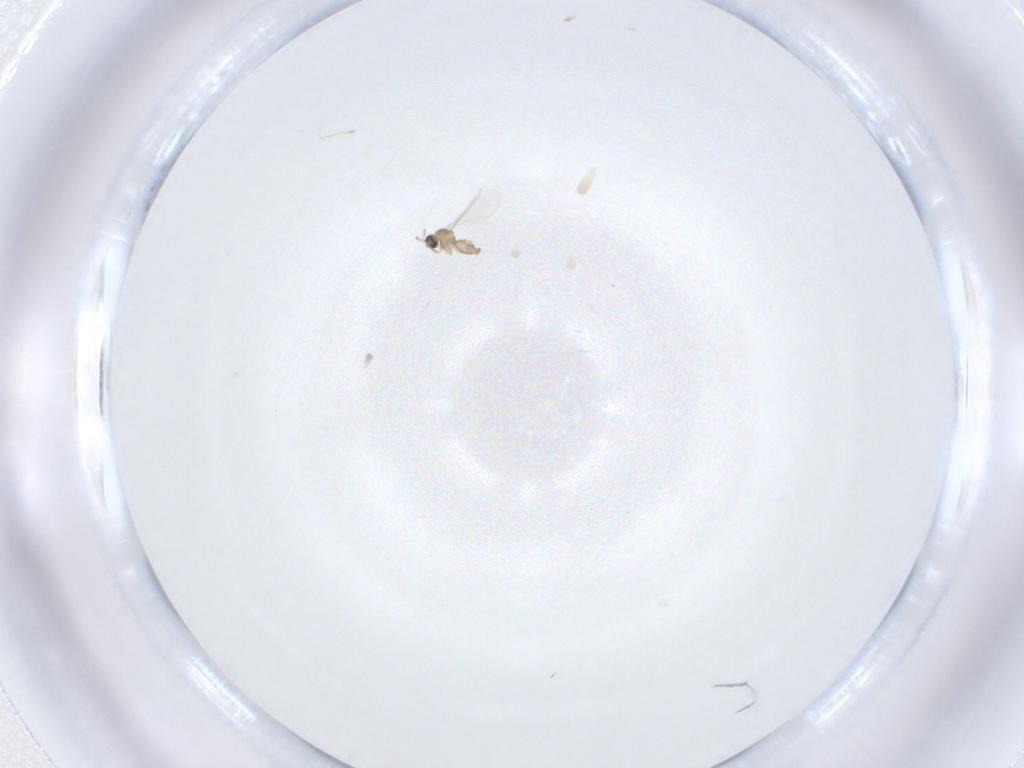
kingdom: Animalia
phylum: Arthropoda
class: Insecta
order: Diptera
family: Cecidomyiidae
